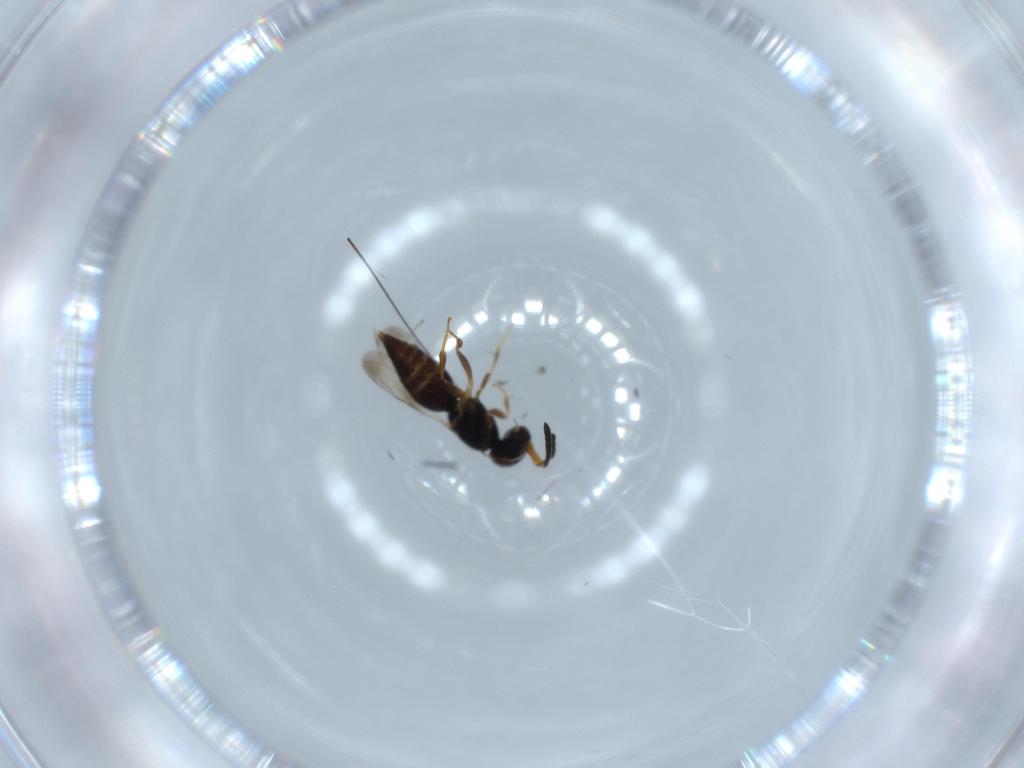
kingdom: Animalia
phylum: Arthropoda
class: Insecta
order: Hymenoptera
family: Ceraphronidae
